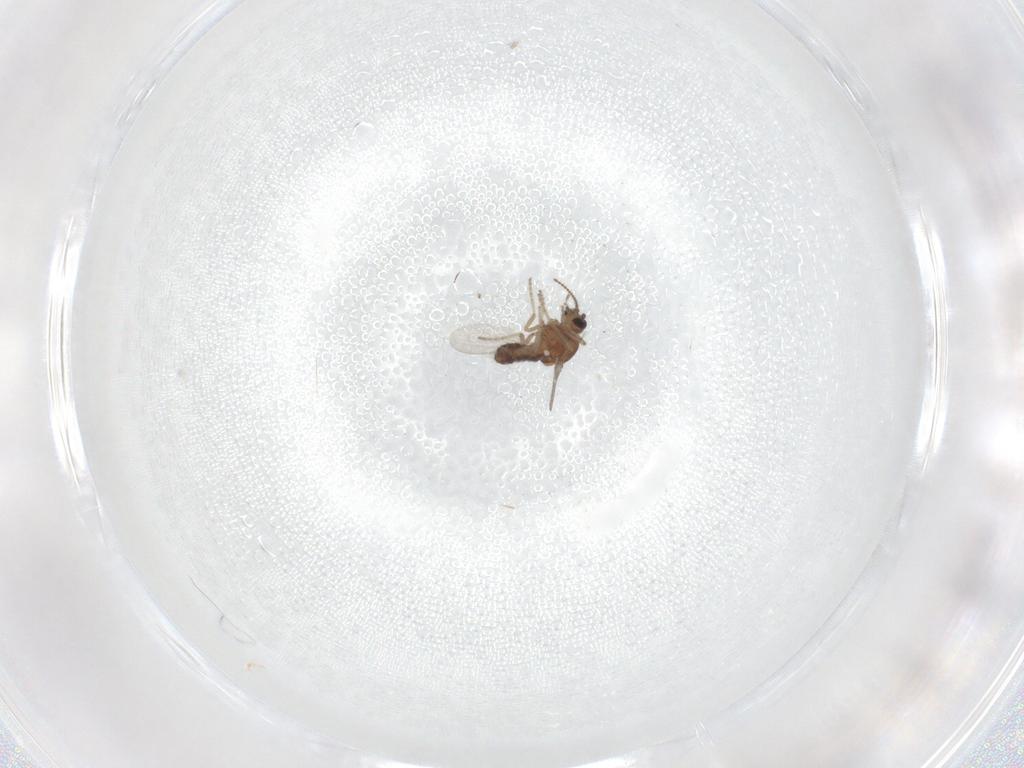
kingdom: Animalia
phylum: Arthropoda
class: Insecta
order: Diptera
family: Ceratopogonidae
